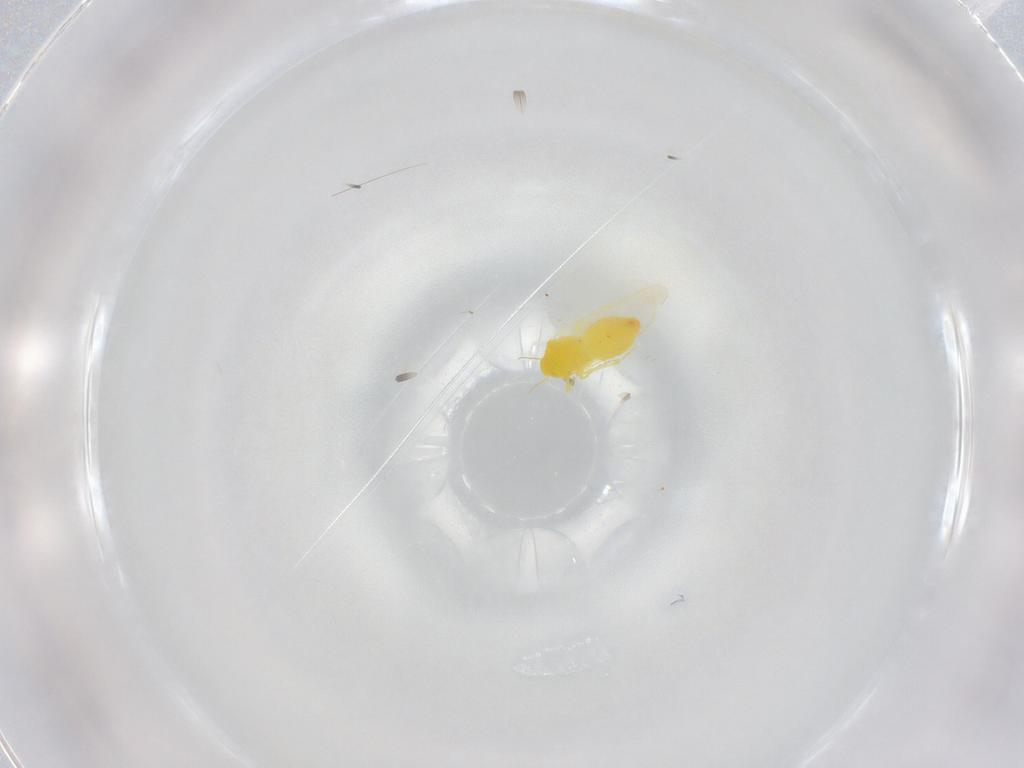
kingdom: Animalia
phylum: Arthropoda
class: Insecta
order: Hemiptera
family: Aleyrodidae
